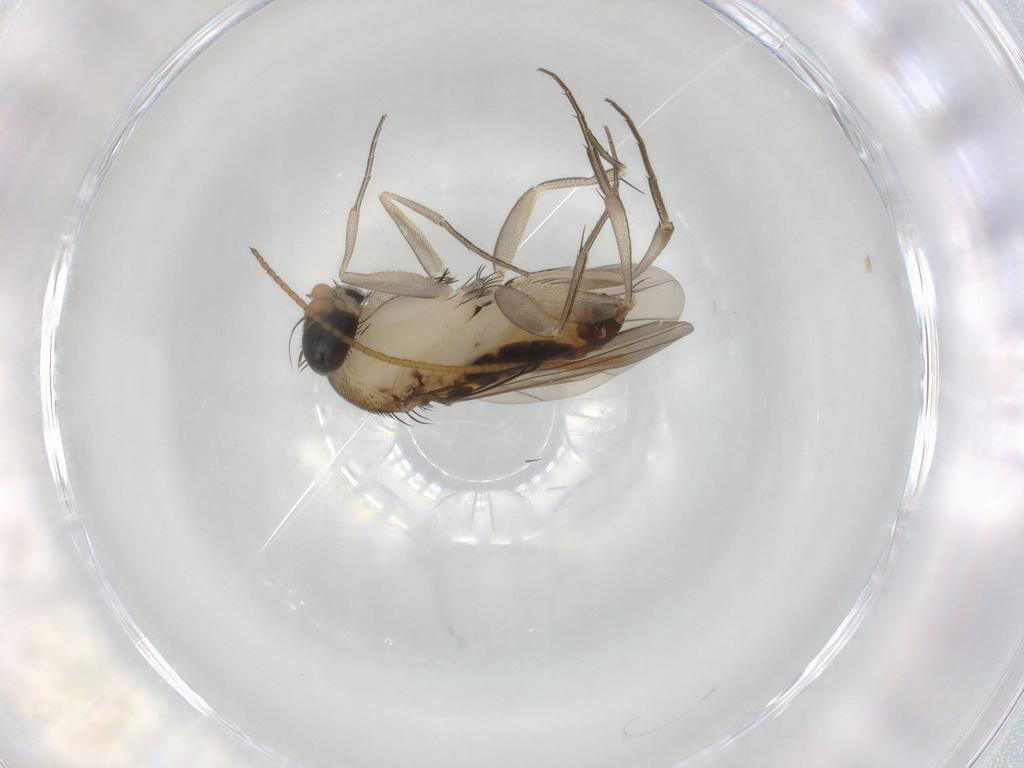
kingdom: Animalia
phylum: Arthropoda
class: Insecta
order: Diptera
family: Phoridae
